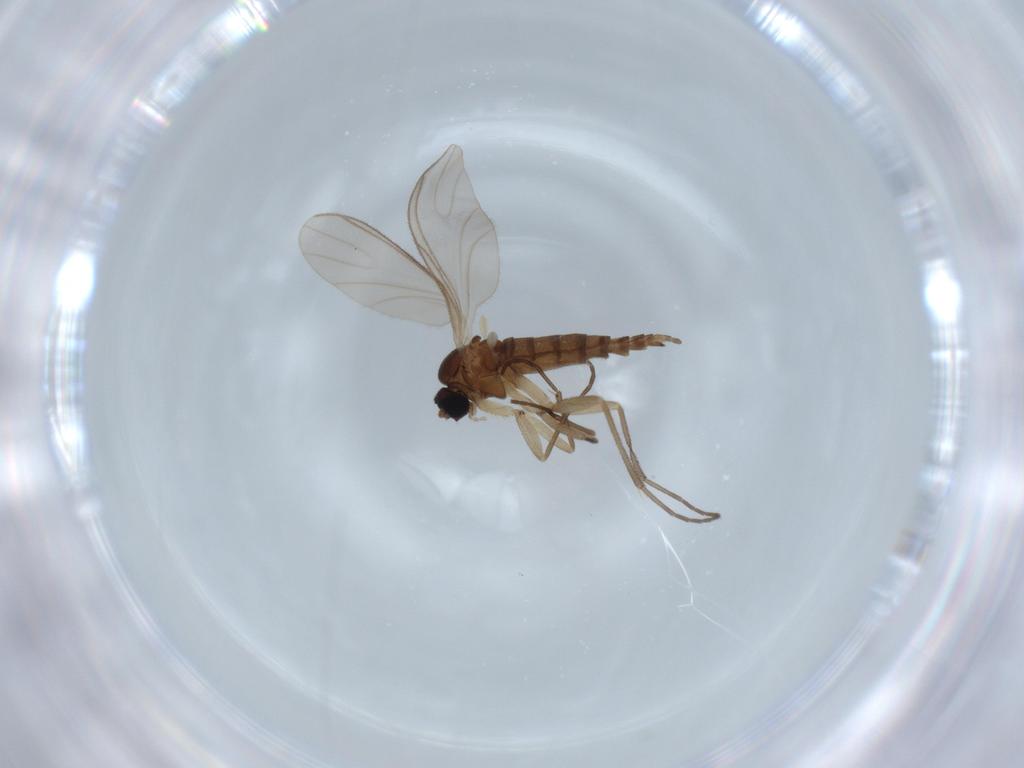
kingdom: Animalia
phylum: Arthropoda
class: Insecta
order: Diptera
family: Sciaridae
